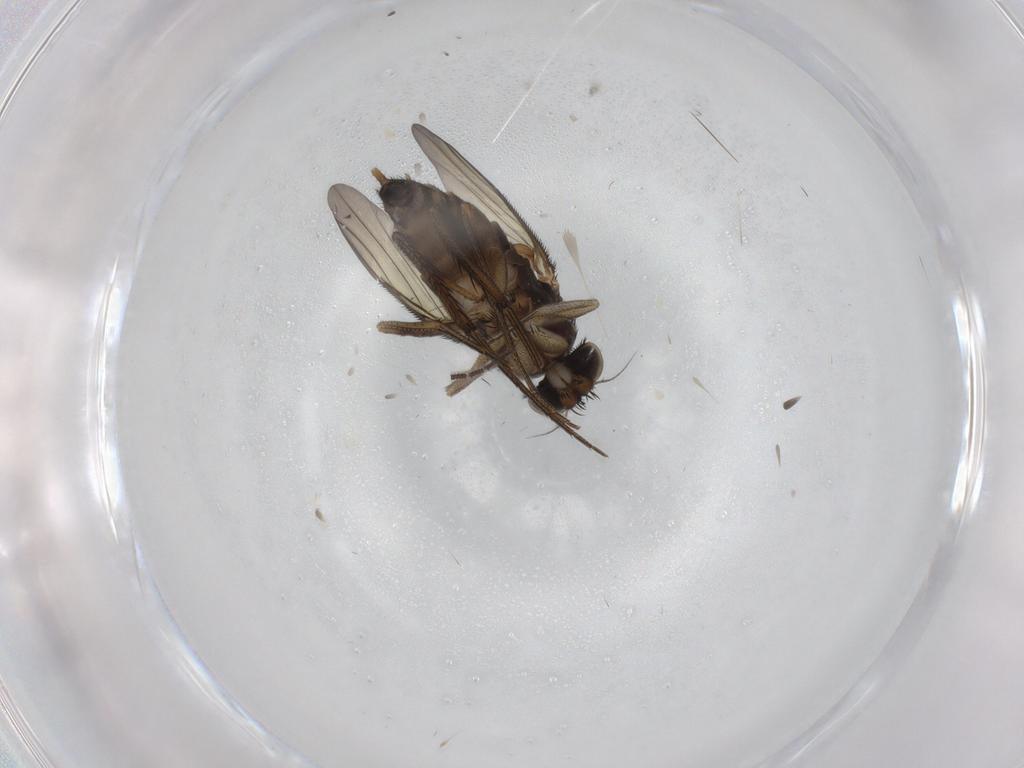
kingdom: Animalia
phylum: Arthropoda
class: Insecta
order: Diptera
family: Phoridae
